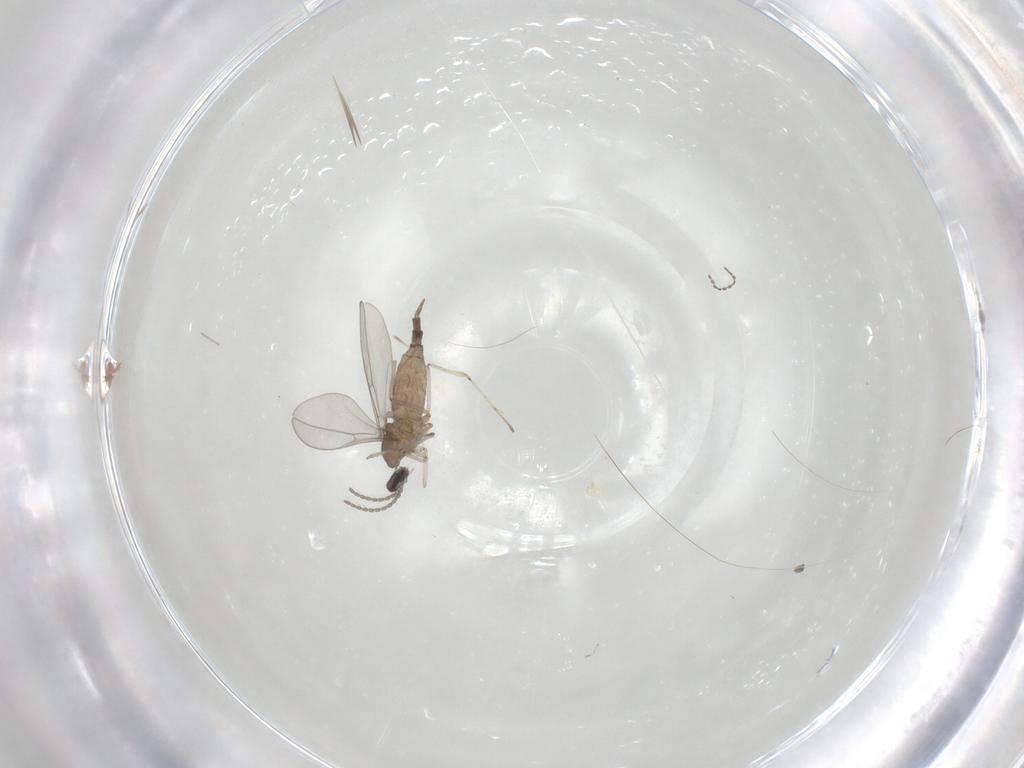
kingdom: Animalia
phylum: Arthropoda
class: Insecta
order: Diptera
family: Cecidomyiidae
